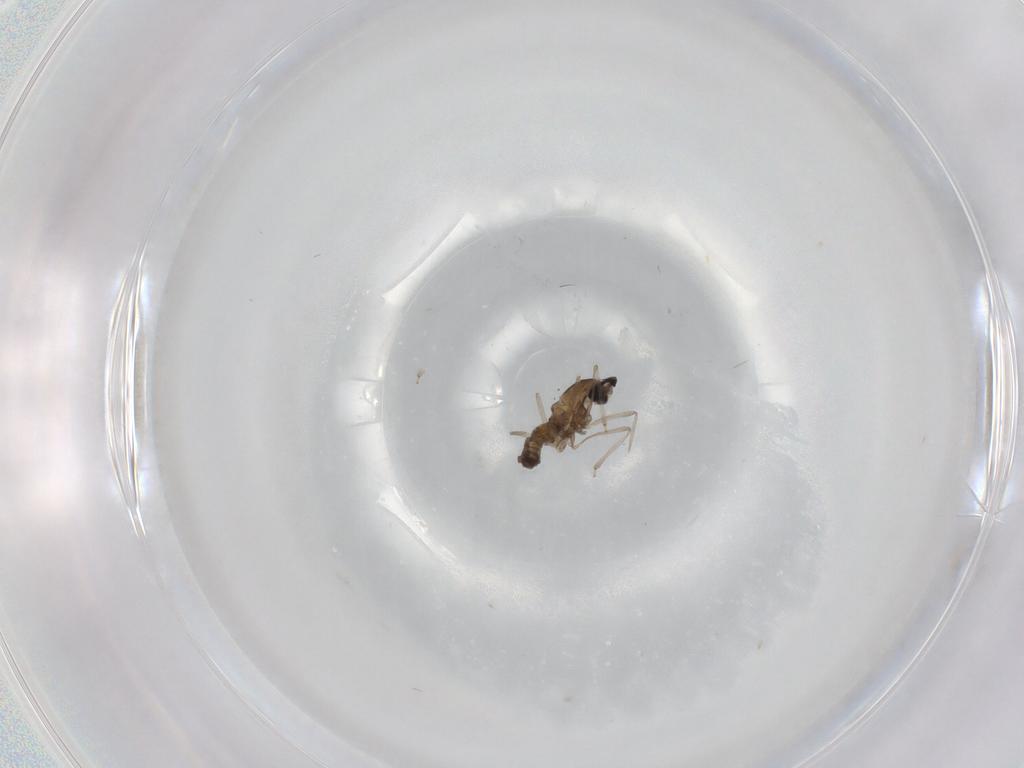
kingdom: Animalia
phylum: Arthropoda
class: Insecta
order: Diptera
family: Cecidomyiidae
